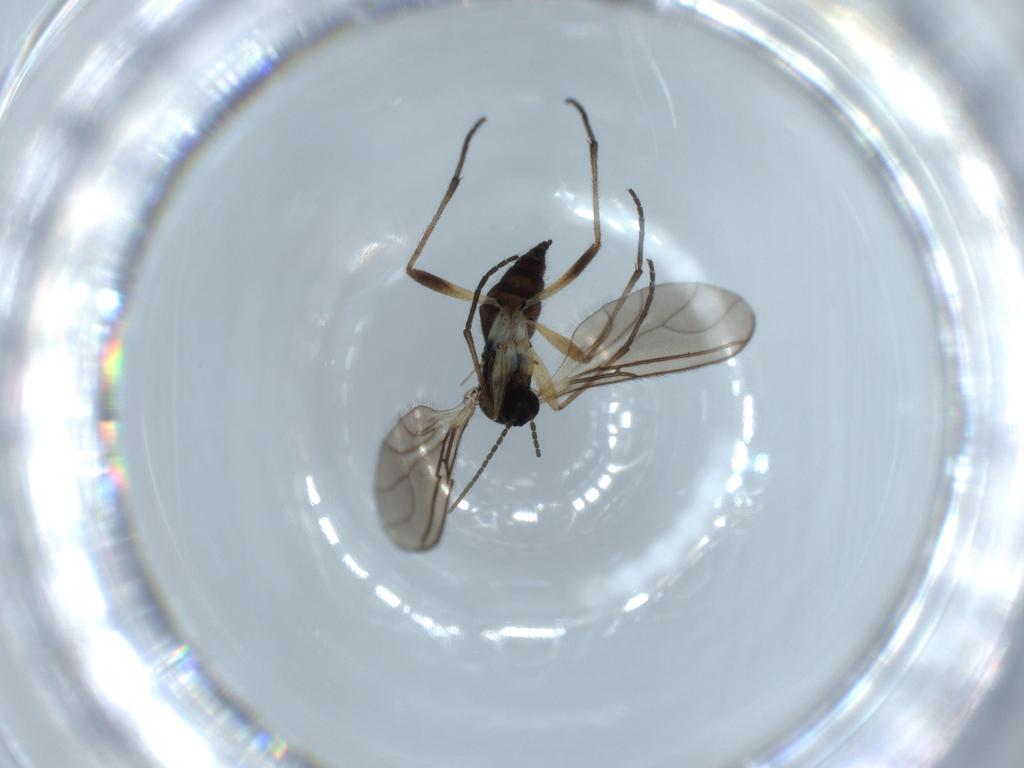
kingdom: Animalia
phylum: Arthropoda
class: Insecta
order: Diptera
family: Sciaridae
